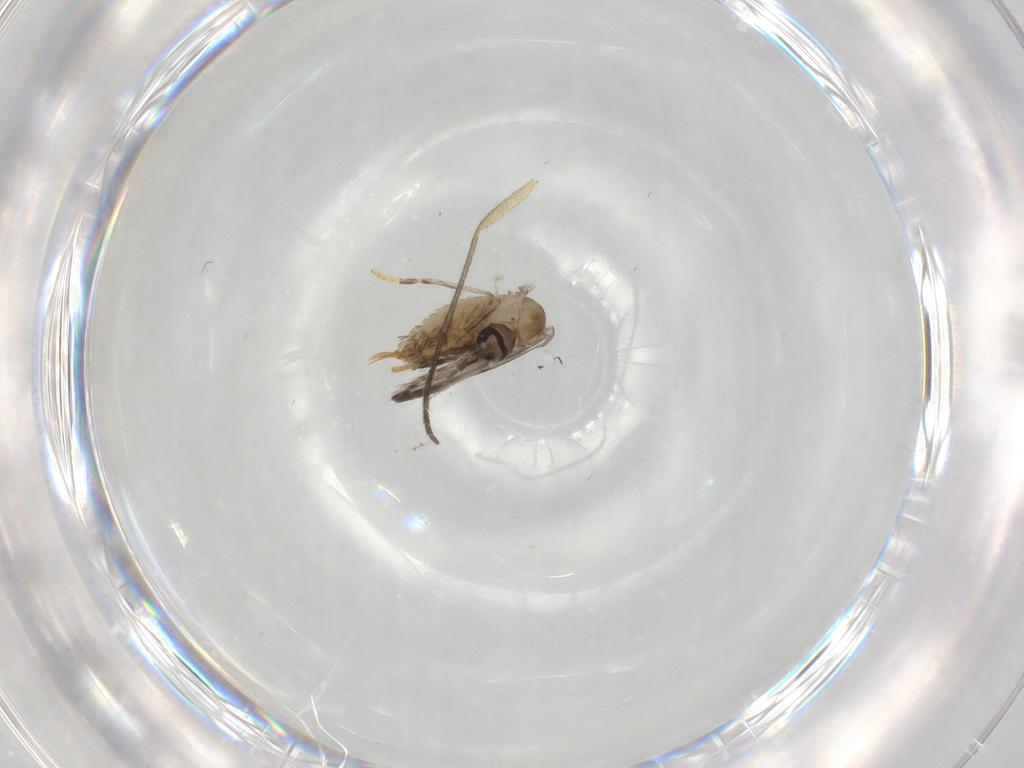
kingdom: Animalia
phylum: Arthropoda
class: Insecta
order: Diptera
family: Psychodidae
